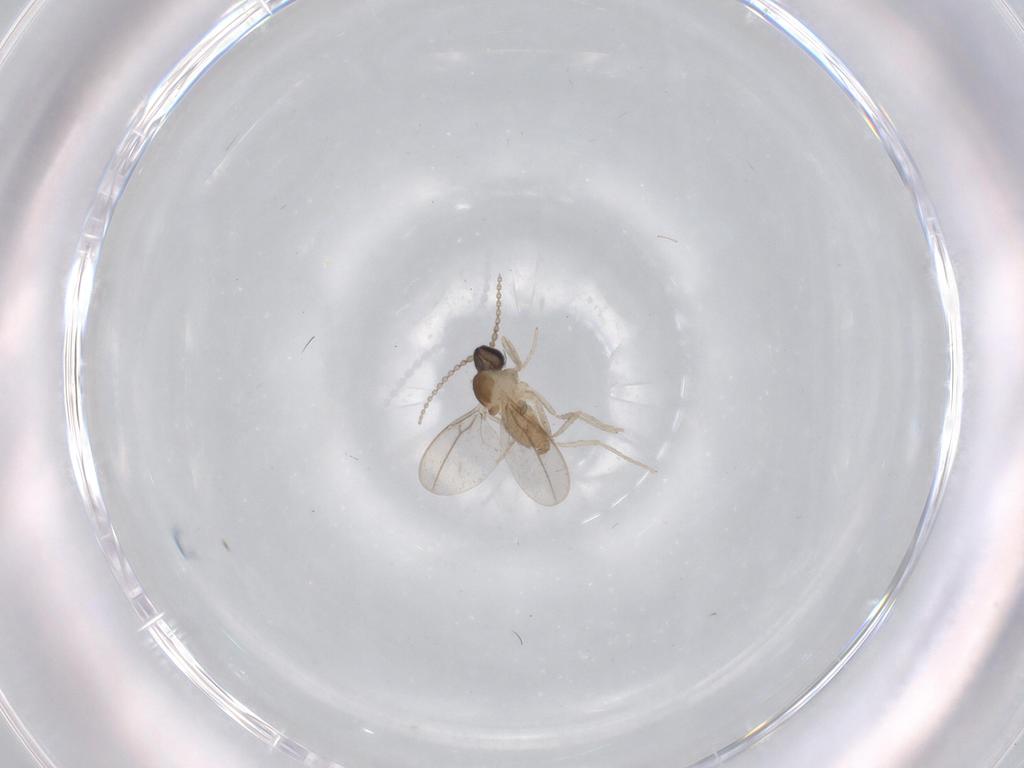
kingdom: Animalia
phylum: Arthropoda
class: Insecta
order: Diptera
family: Cecidomyiidae
